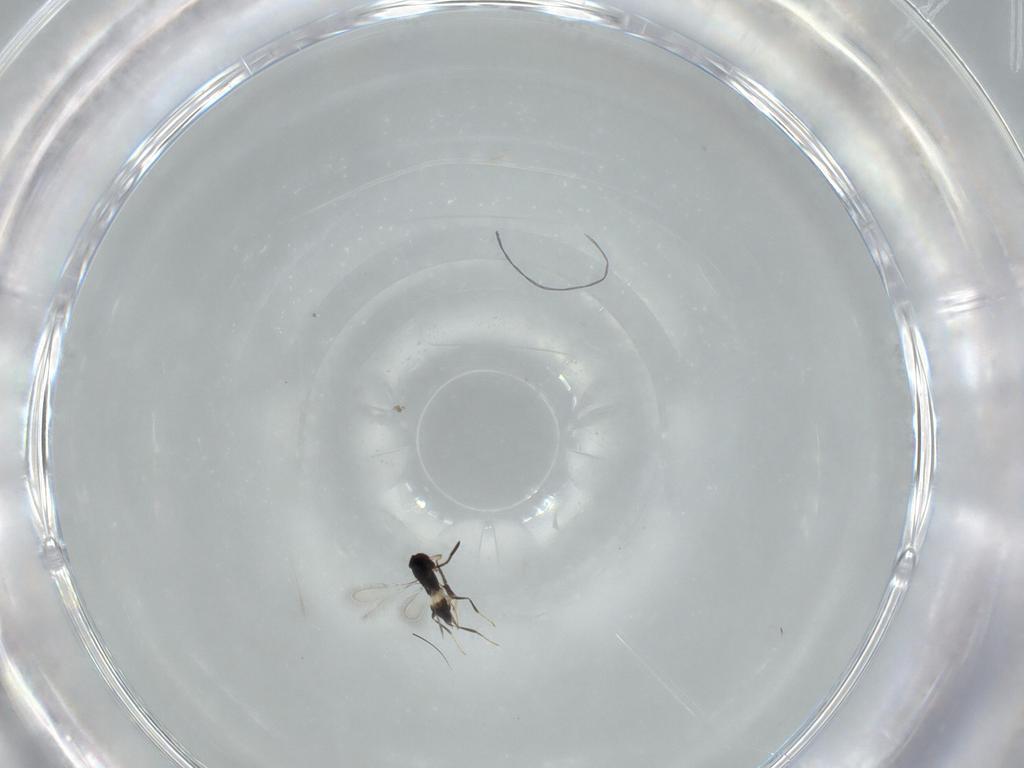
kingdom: Animalia
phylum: Arthropoda
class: Insecta
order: Hymenoptera
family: Mymaridae
